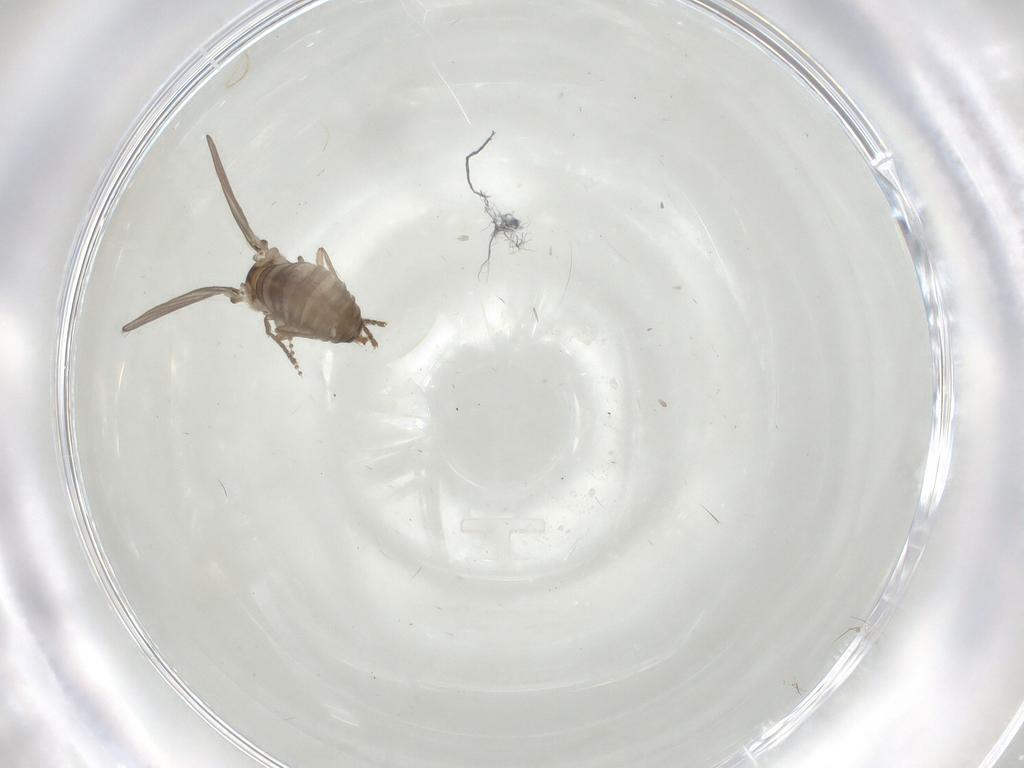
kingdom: Animalia
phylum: Arthropoda
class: Insecta
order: Diptera
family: Psychodidae
